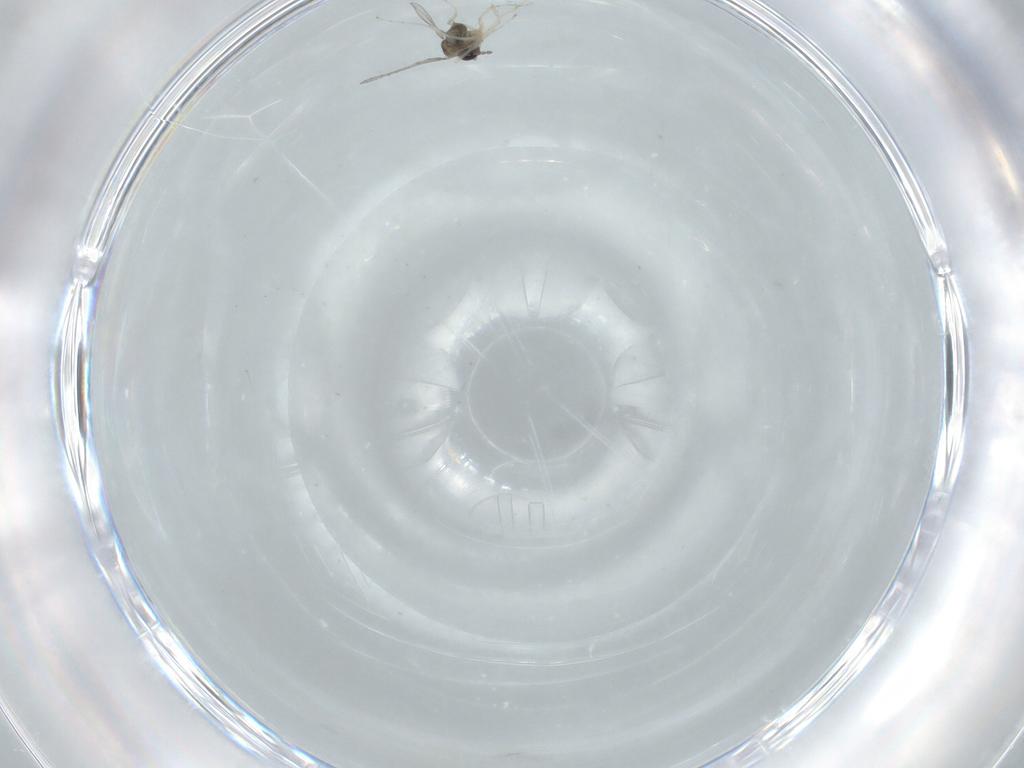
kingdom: Animalia
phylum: Arthropoda
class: Insecta
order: Diptera
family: Cecidomyiidae
